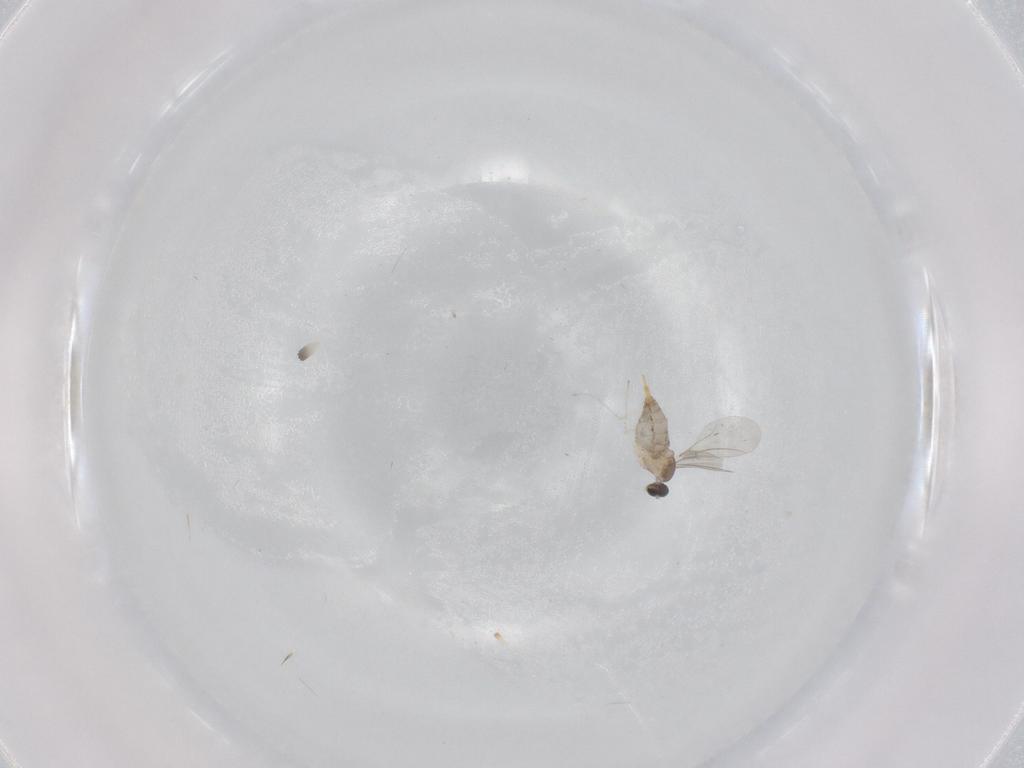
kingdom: Animalia
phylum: Arthropoda
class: Insecta
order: Diptera
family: Cecidomyiidae
